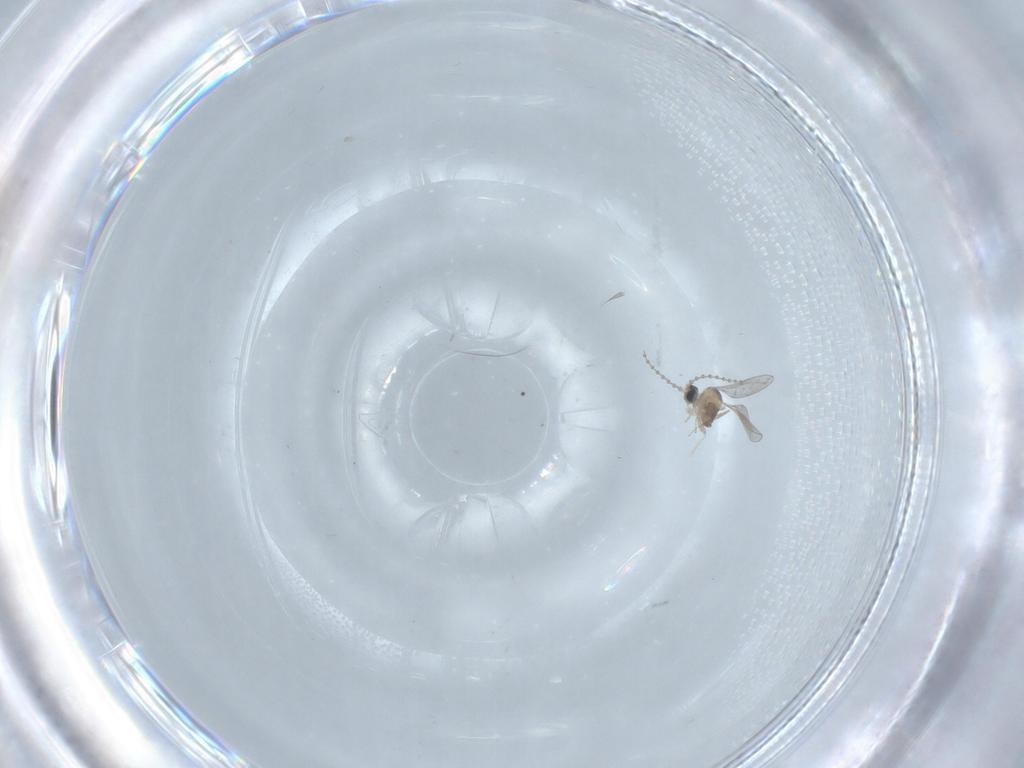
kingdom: Animalia
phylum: Arthropoda
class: Insecta
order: Diptera
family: Cecidomyiidae
